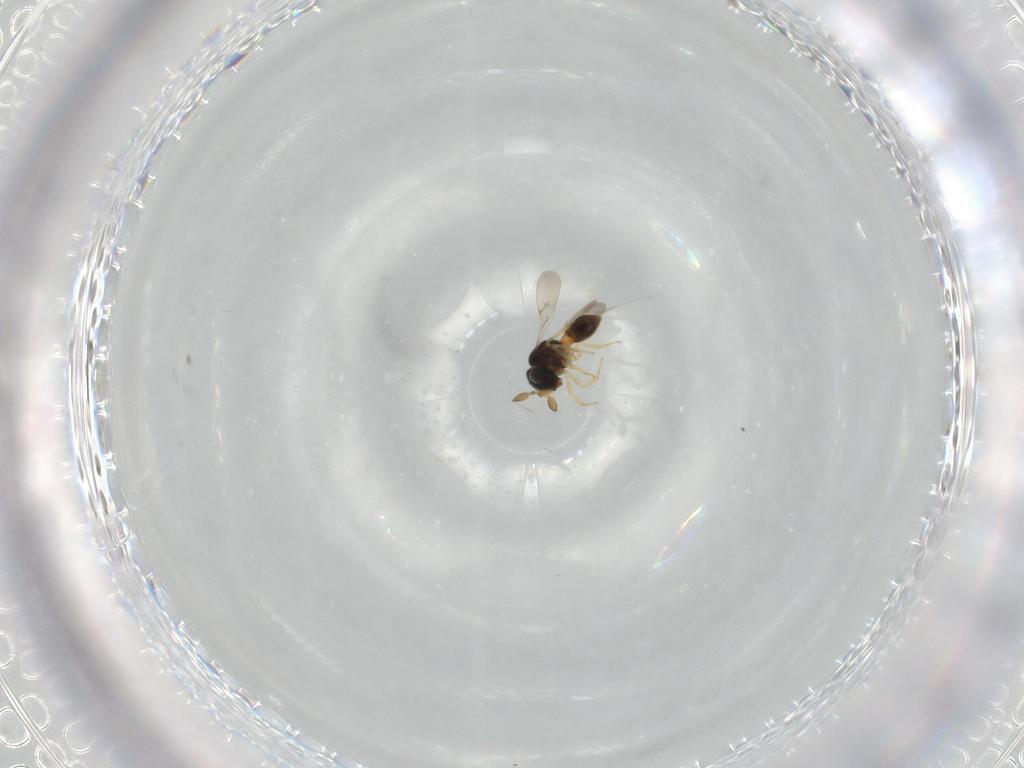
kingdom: Animalia
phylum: Arthropoda
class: Insecta
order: Hymenoptera
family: Scelionidae
